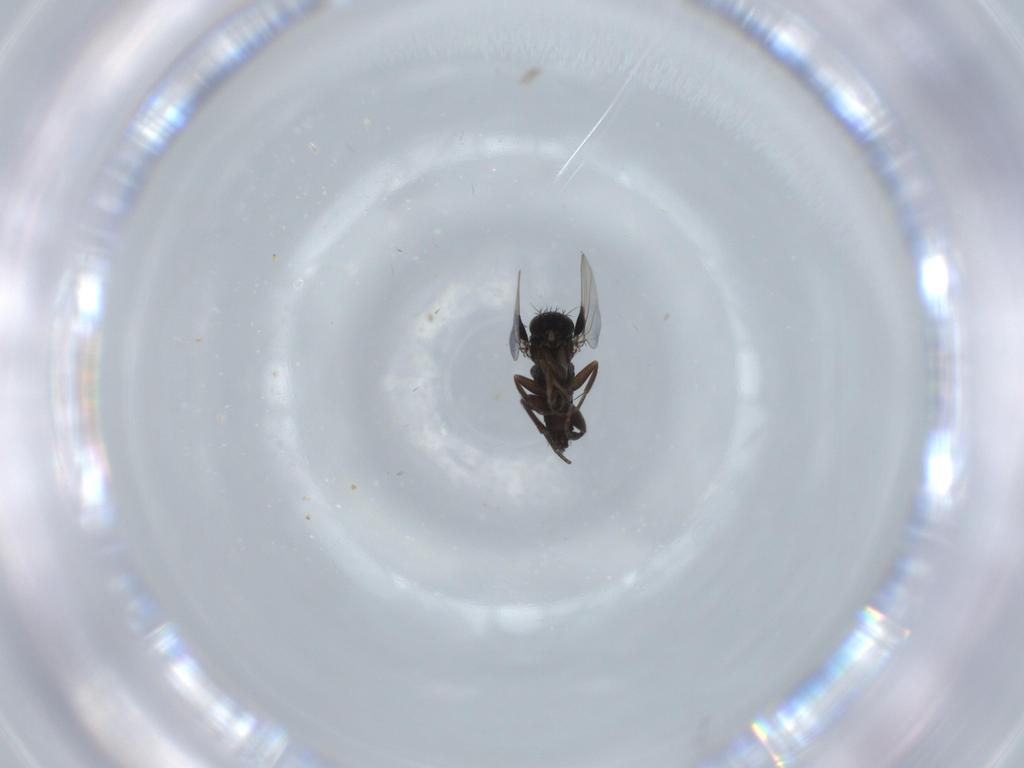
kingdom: Animalia
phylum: Arthropoda
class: Insecta
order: Diptera
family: Phoridae
